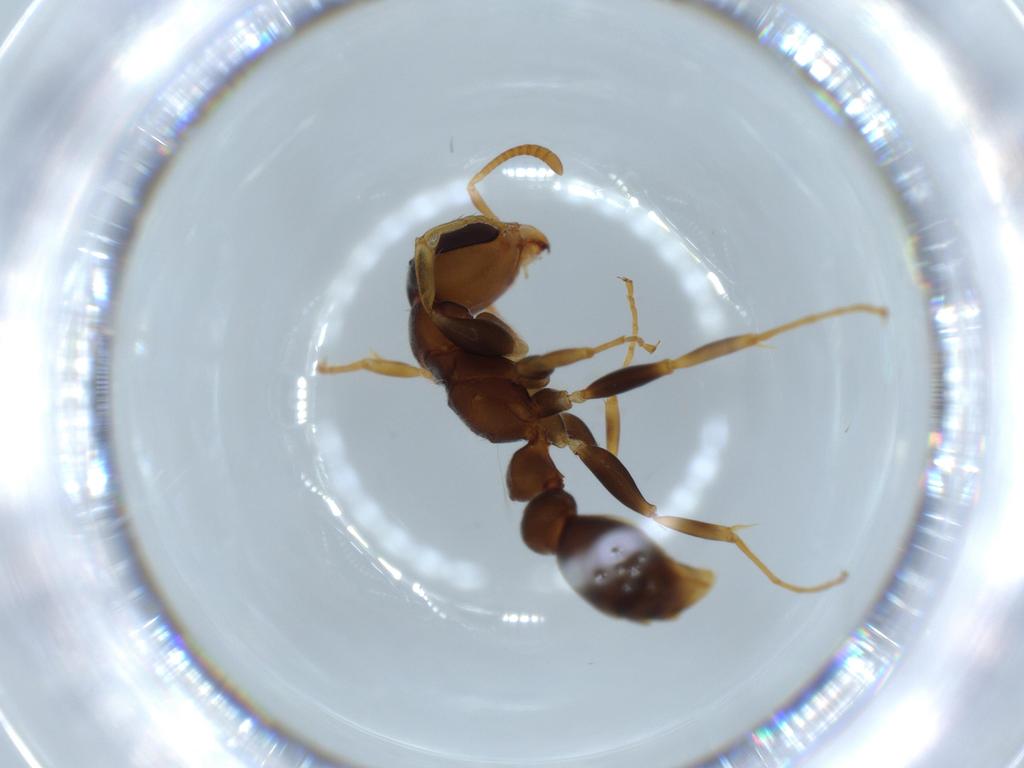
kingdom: Animalia
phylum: Arthropoda
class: Insecta
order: Hymenoptera
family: Formicidae
